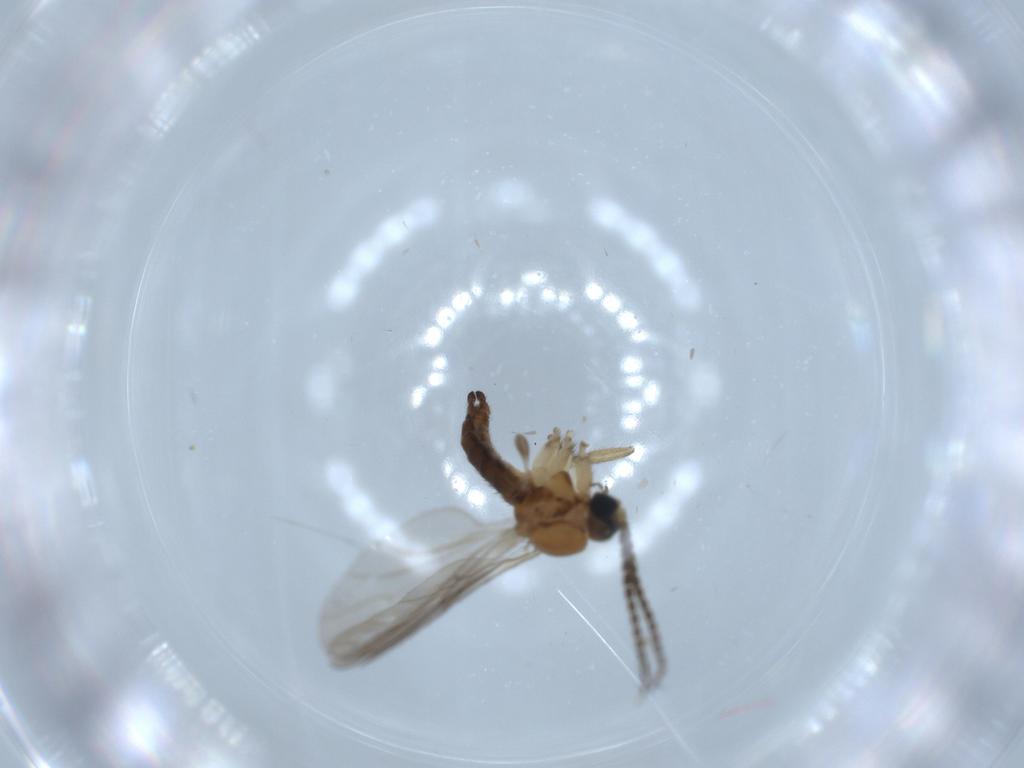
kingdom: Animalia
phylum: Arthropoda
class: Insecta
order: Diptera
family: Sciaridae
